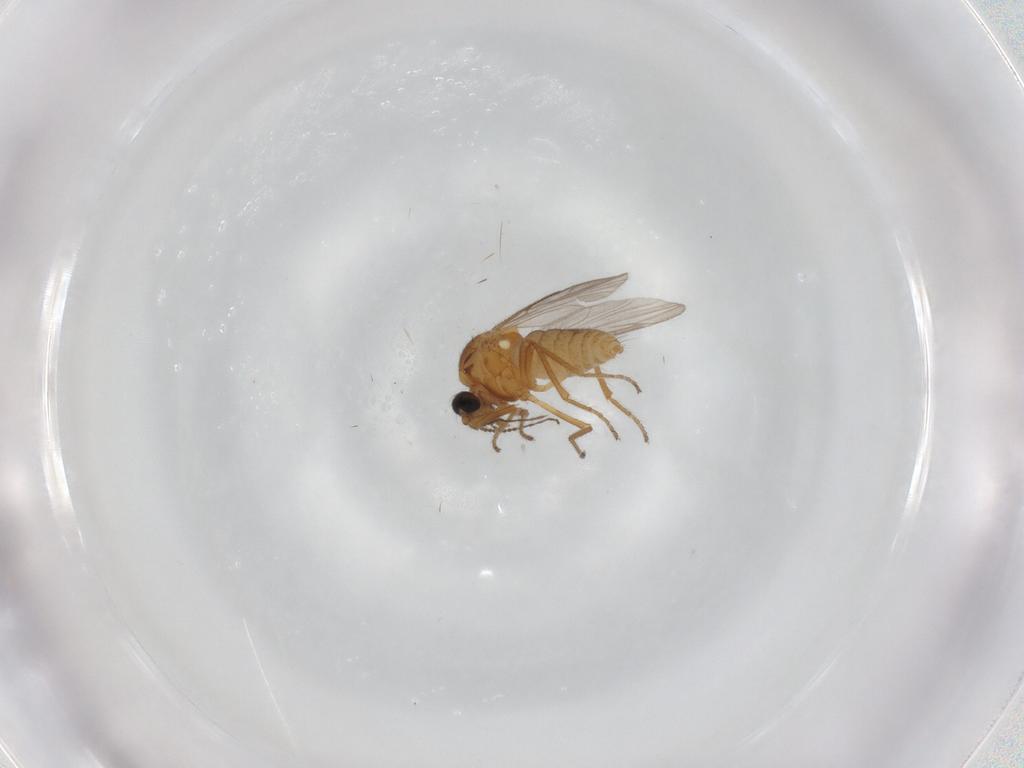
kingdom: Animalia
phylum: Arthropoda
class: Insecta
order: Diptera
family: Ceratopogonidae
